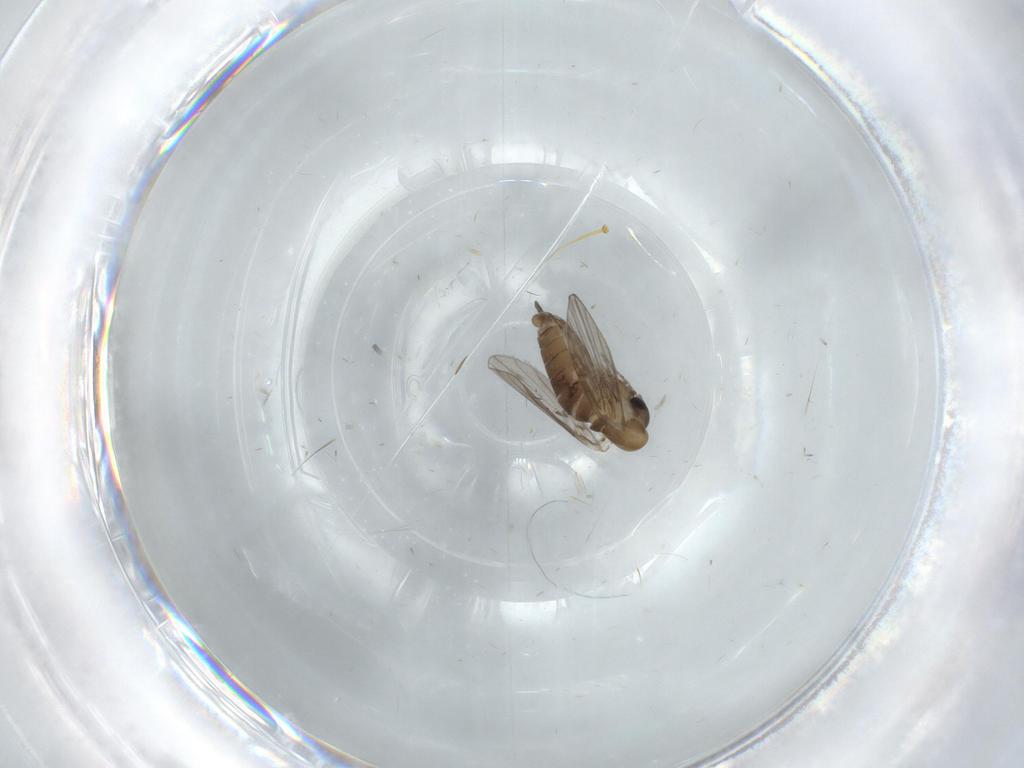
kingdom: Animalia
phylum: Arthropoda
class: Insecta
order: Diptera
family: Psychodidae
